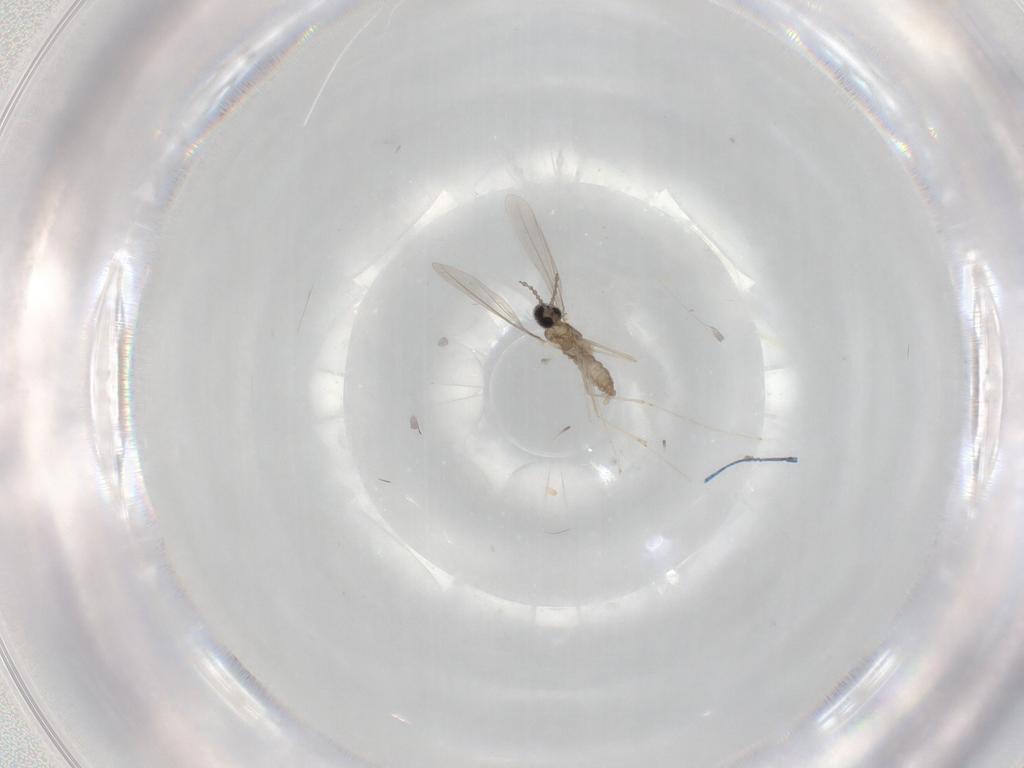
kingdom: Animalia
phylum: Arthropoda
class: Insecta
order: Diptera
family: Cecidomyiidae
